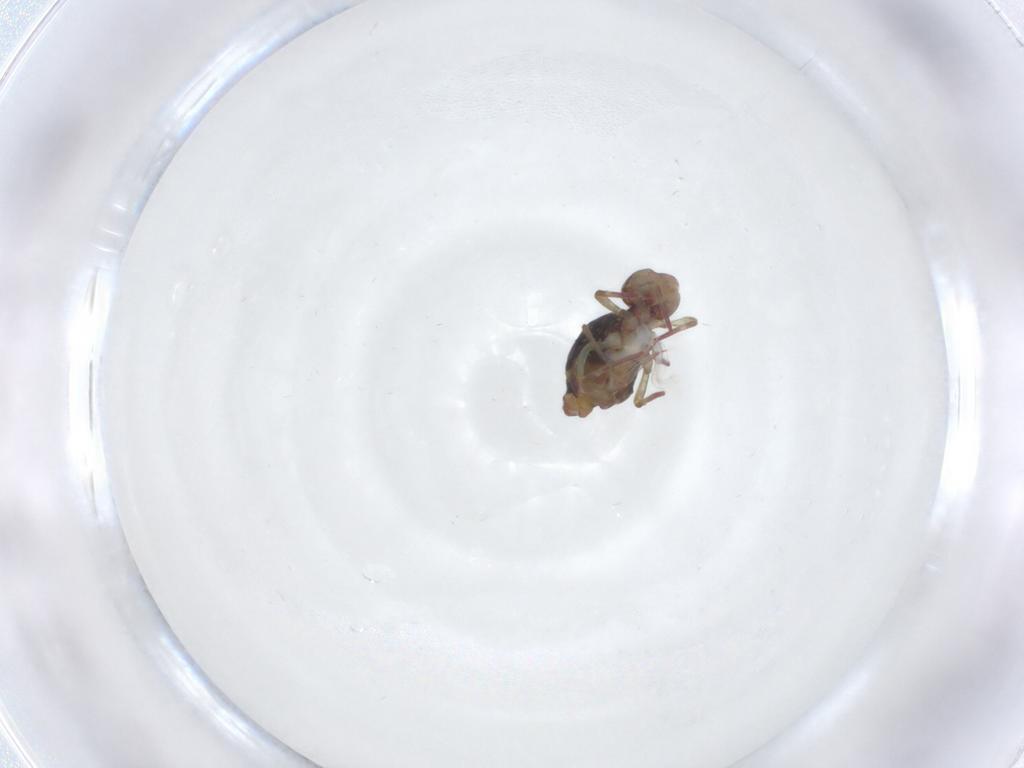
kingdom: Animalia
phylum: Arthropoda
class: Collembola
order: Symphypleona
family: Dicyrtomidae
